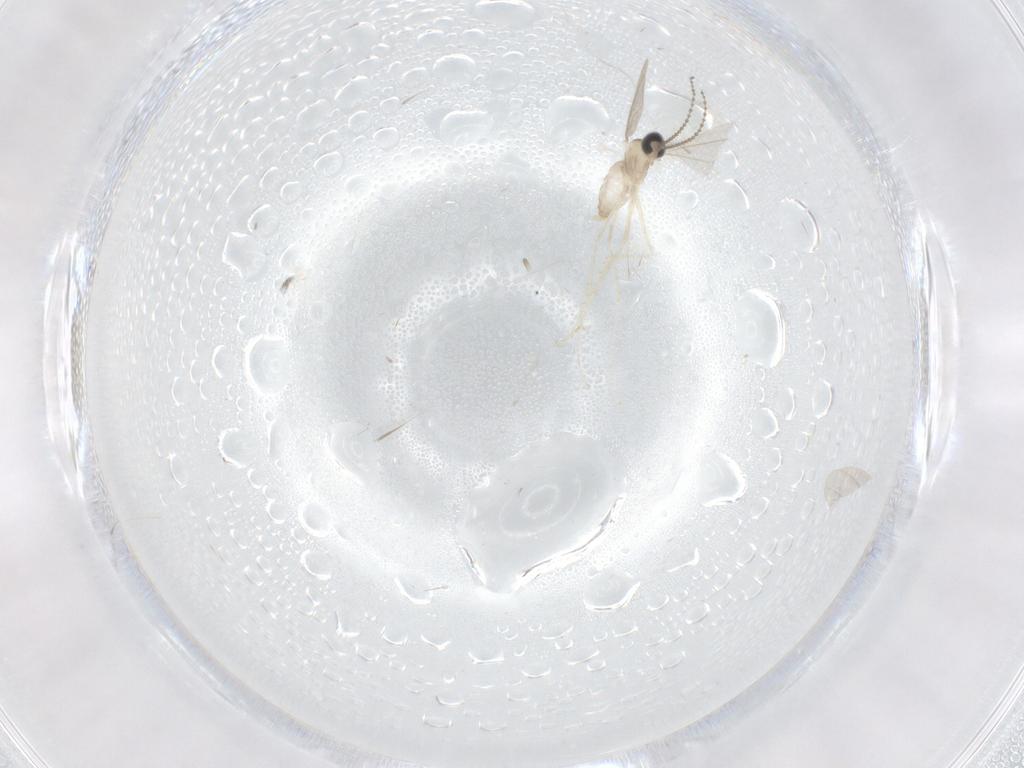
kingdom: Animalia
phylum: Arthropoda
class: Insecta
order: Diptera
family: Cecidomyiidae
